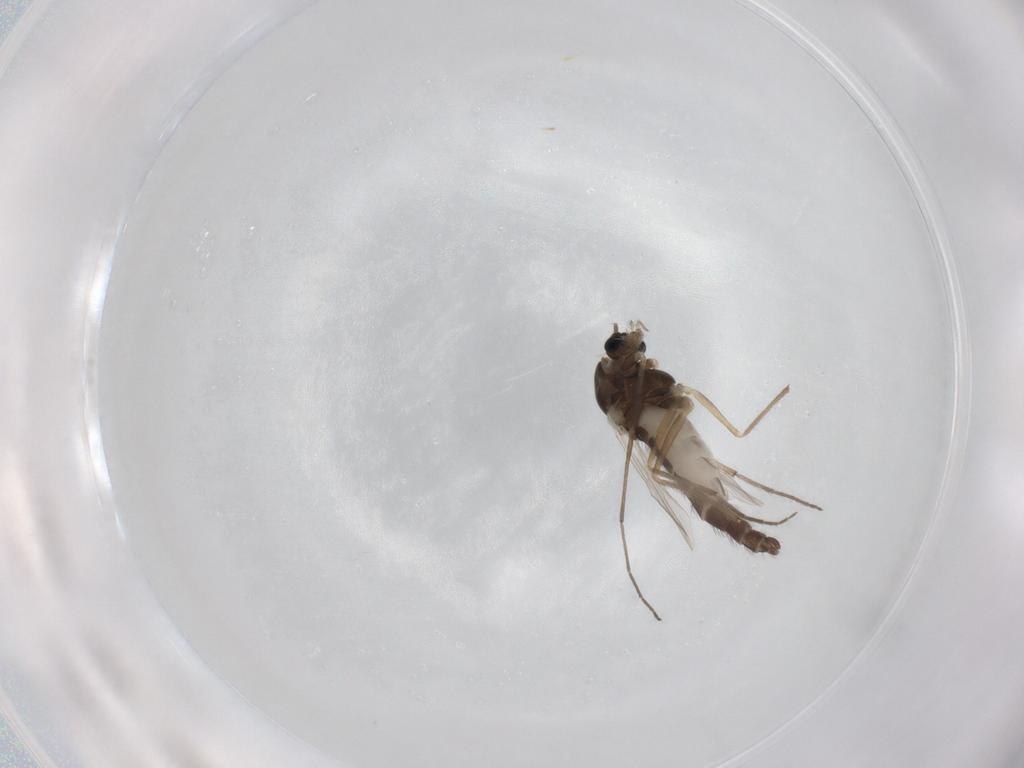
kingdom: Animalia
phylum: Arthropoda
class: Insecta
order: Diptera
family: Chironomidae
